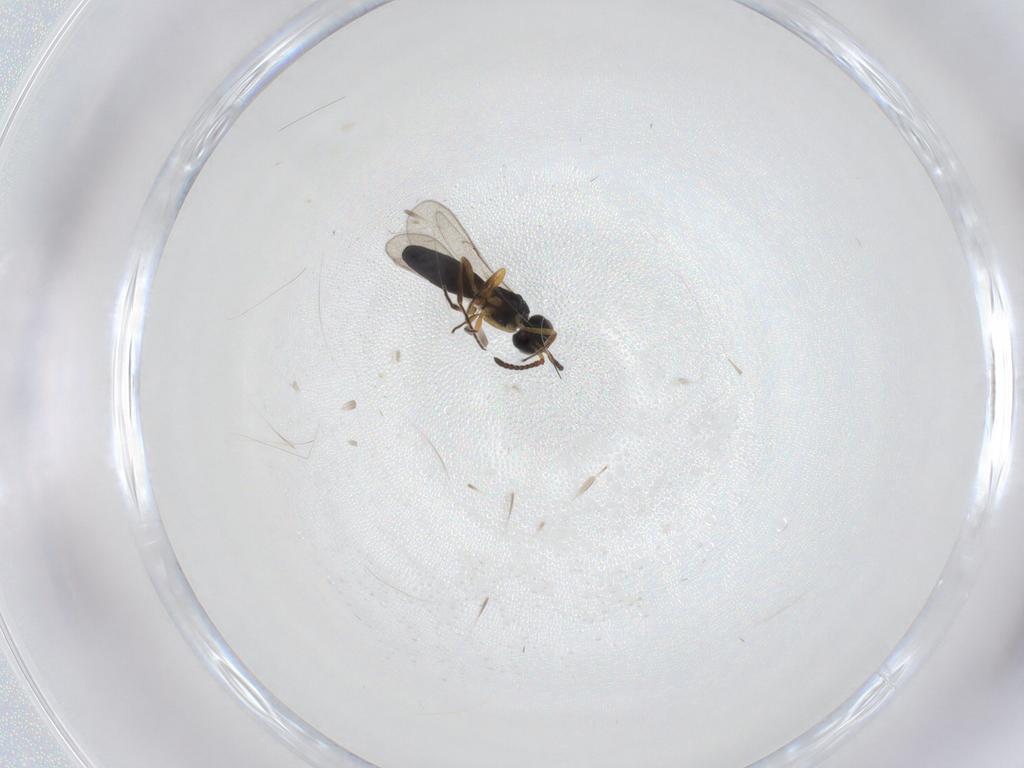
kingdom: Animalia
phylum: Arthropoda
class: Insecta
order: Hymenoptera
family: Scelionidae
